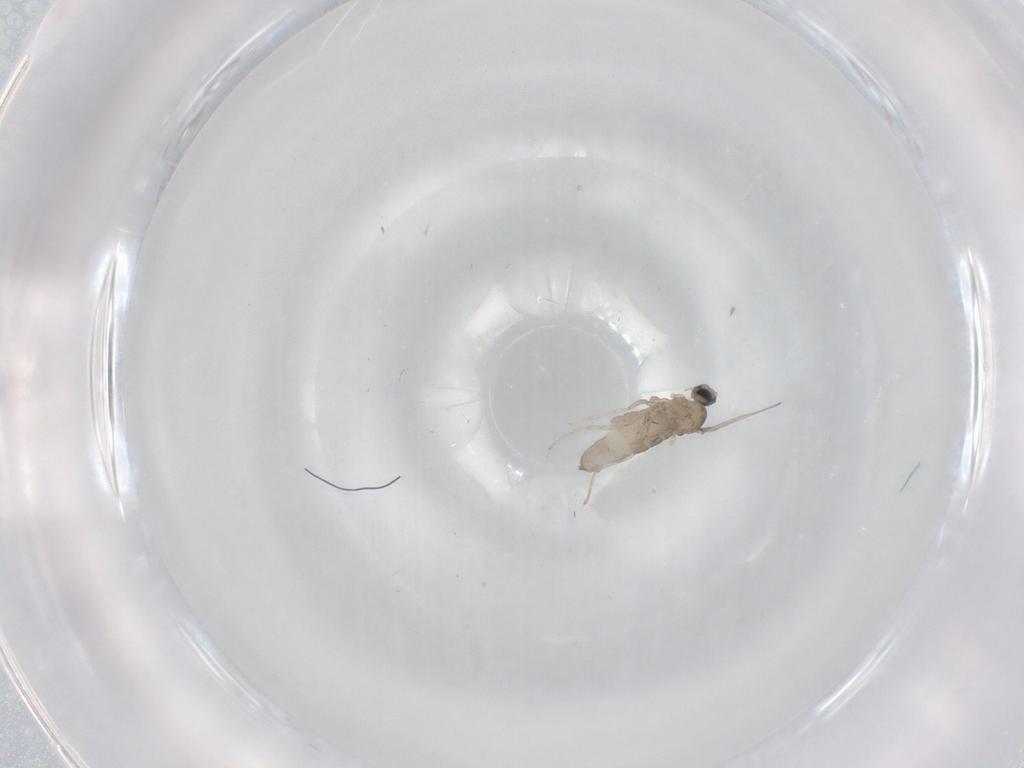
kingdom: Animalia
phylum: Arthropoda
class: Insecta
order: Diptera
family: Cecidomyiidae
